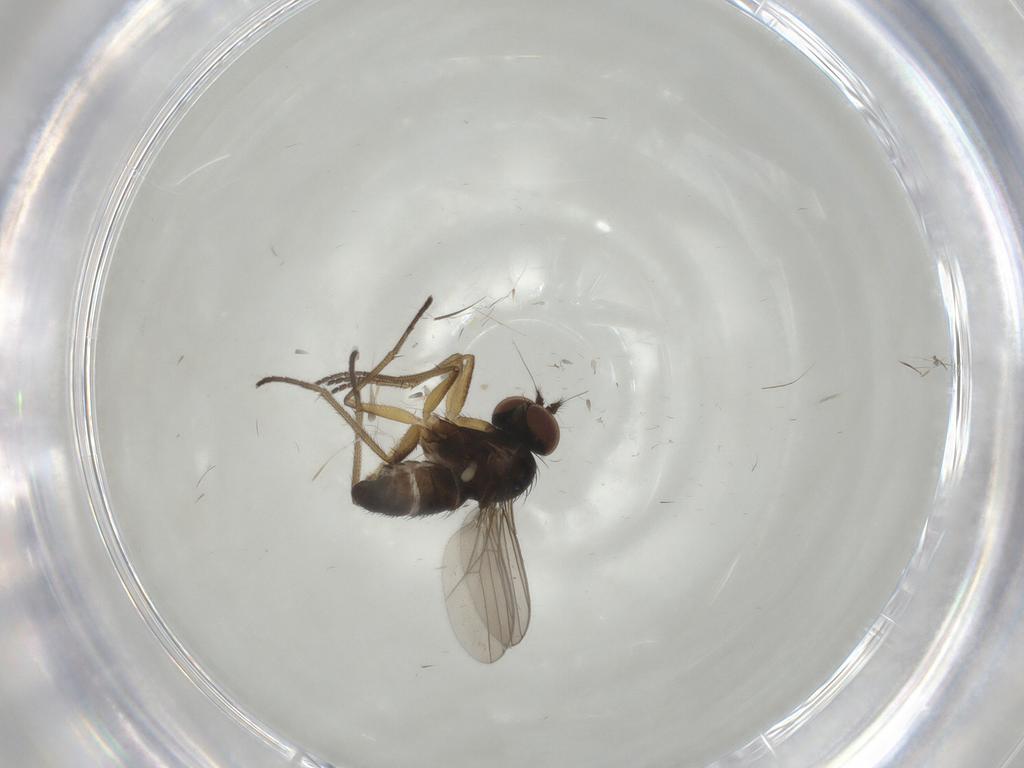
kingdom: Animalia
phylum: Arthropoda
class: Insecta
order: Diptera
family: Dolichopodidae
